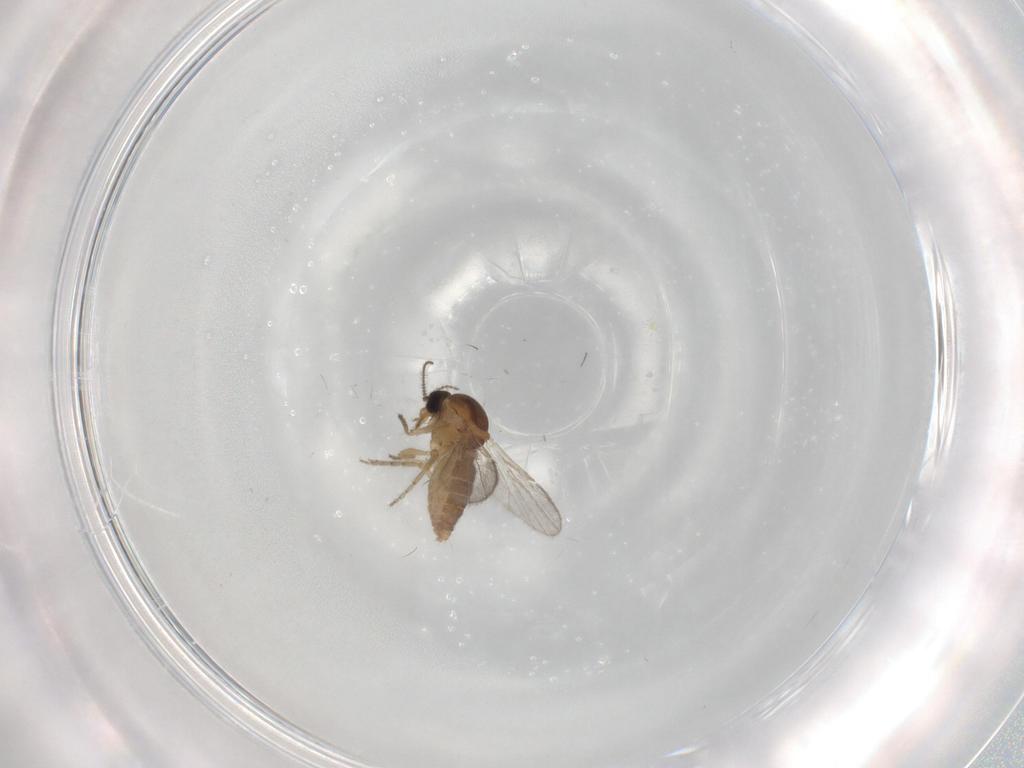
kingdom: Animalia
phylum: Arthropoda
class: Insecta
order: Diptera
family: Ceratopogonidae
